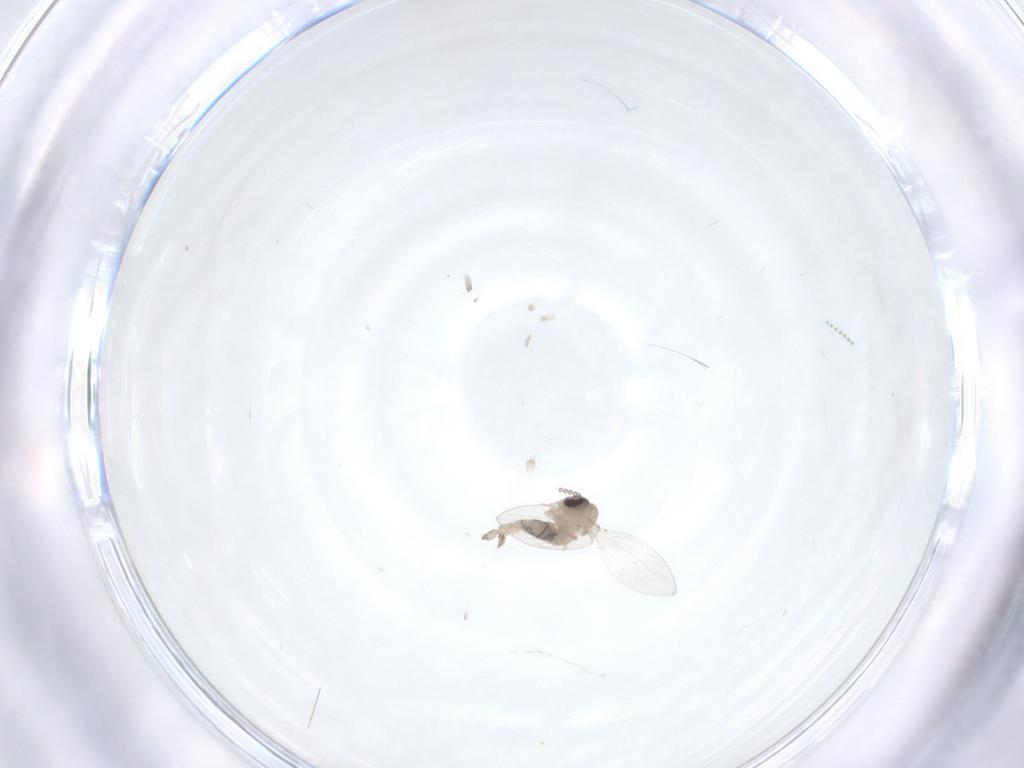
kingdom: Animalia
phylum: Arthropoda
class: Insecta
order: Diptera
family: Psychodidae
